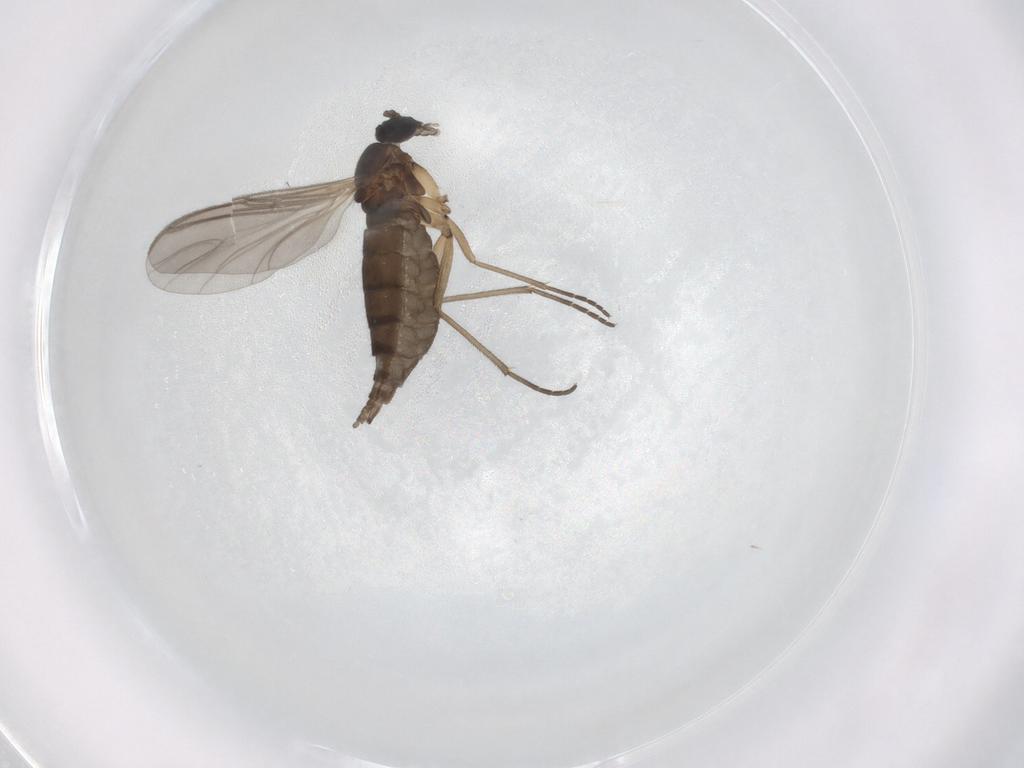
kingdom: Animalia
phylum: Arthropoda
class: Insecta
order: Diptera
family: Sciaridae
